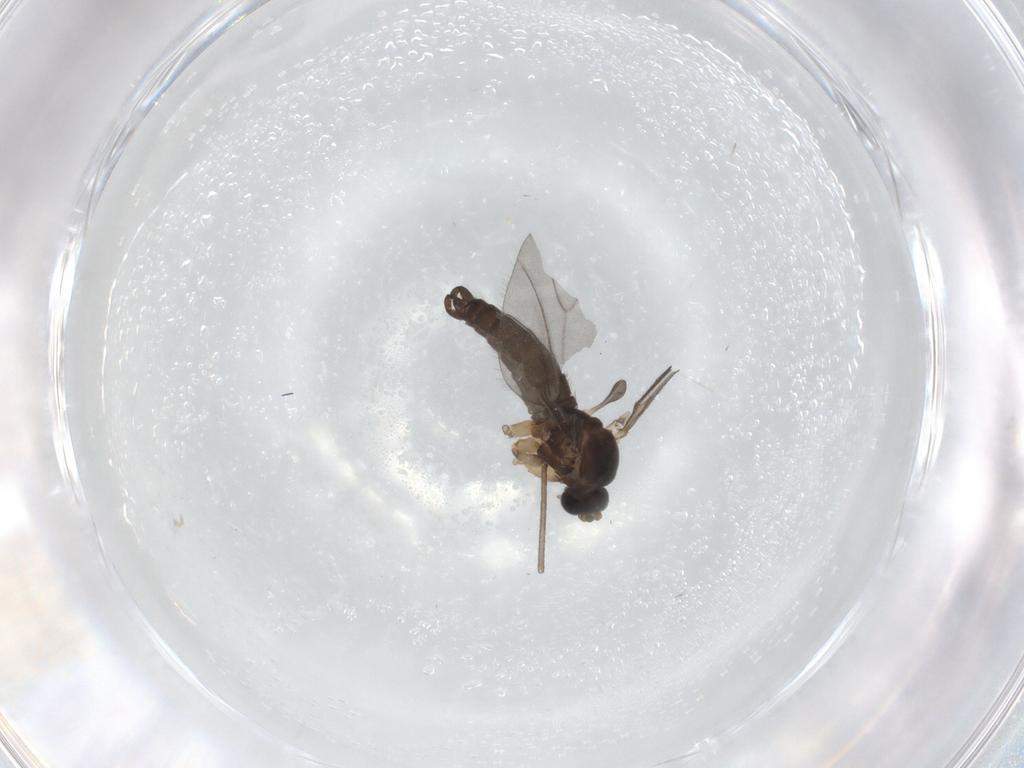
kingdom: Animalia
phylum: Arthropoda
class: Insecta
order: Diptera
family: Sciaridae
